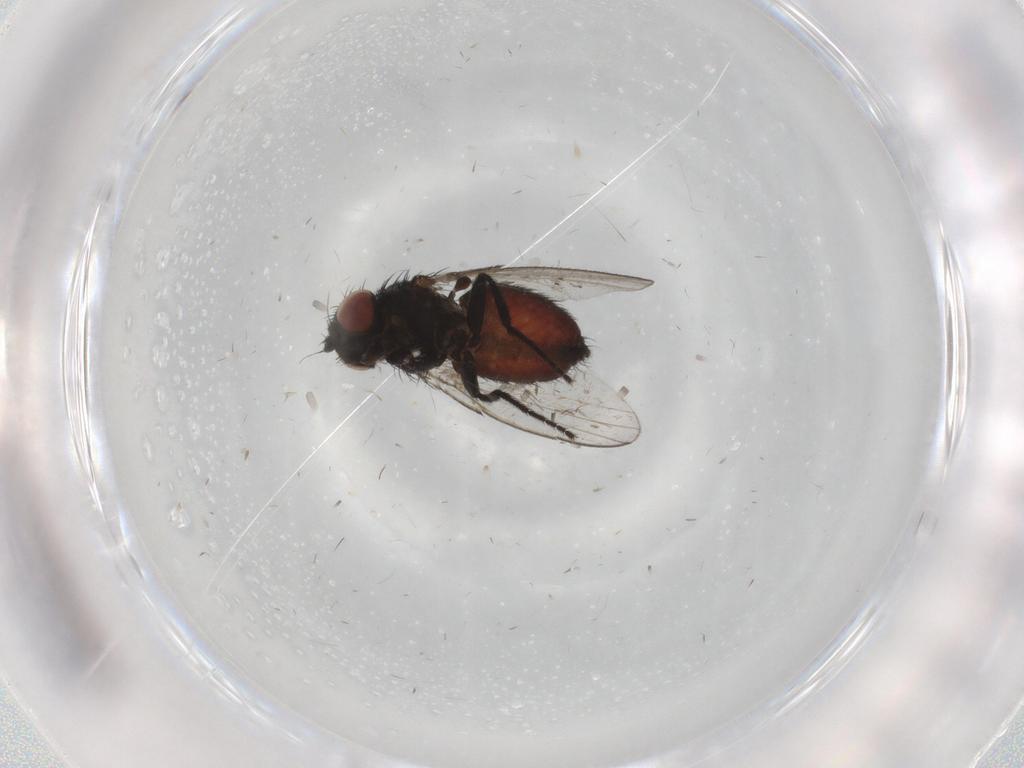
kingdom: Animalia
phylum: Arthropoda
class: Insecta
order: Diptera
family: Milichiidae
